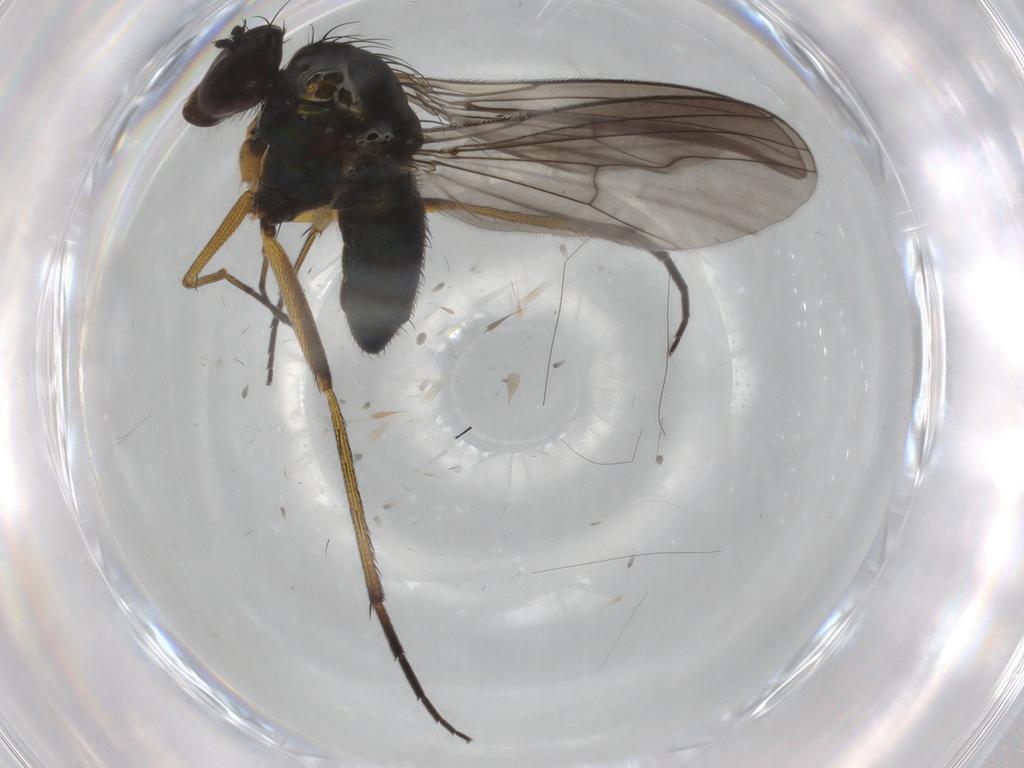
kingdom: Animalia
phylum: Arthropoda
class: Insecta
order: Diptera
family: Dolichopodidae
